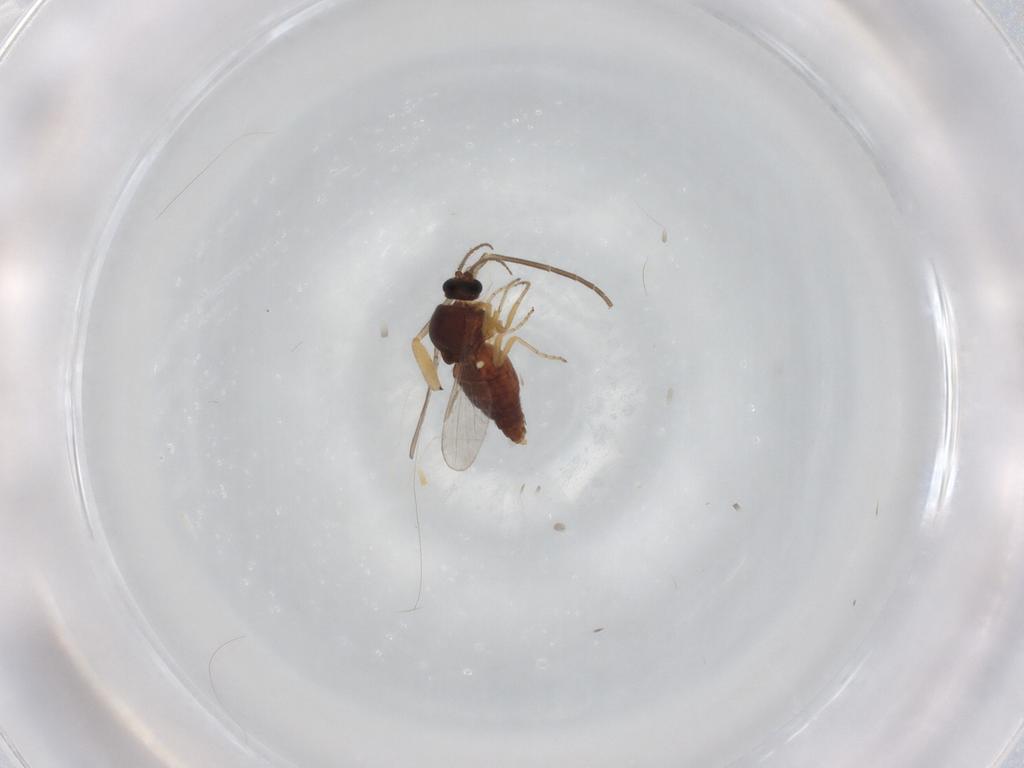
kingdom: Animalia
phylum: Arthropoda
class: Insecta
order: Diptera
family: Ceratopogonidae
